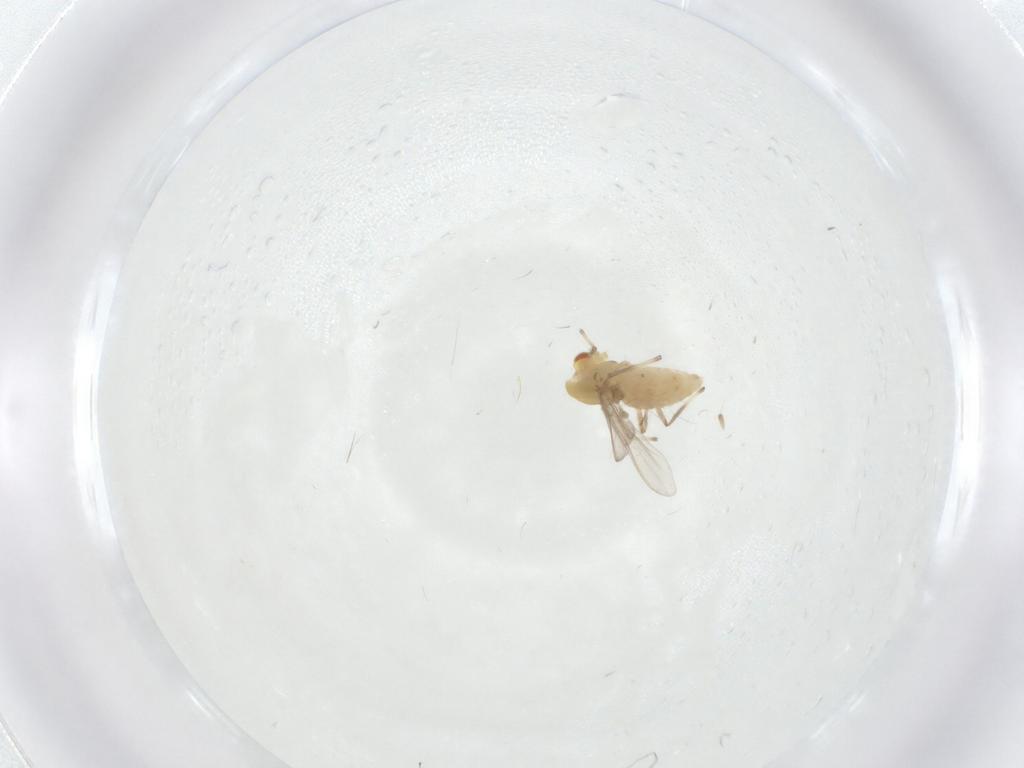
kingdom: Animalia
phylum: Arthropoda
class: Insecta
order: Diptera
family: Chironomidae
